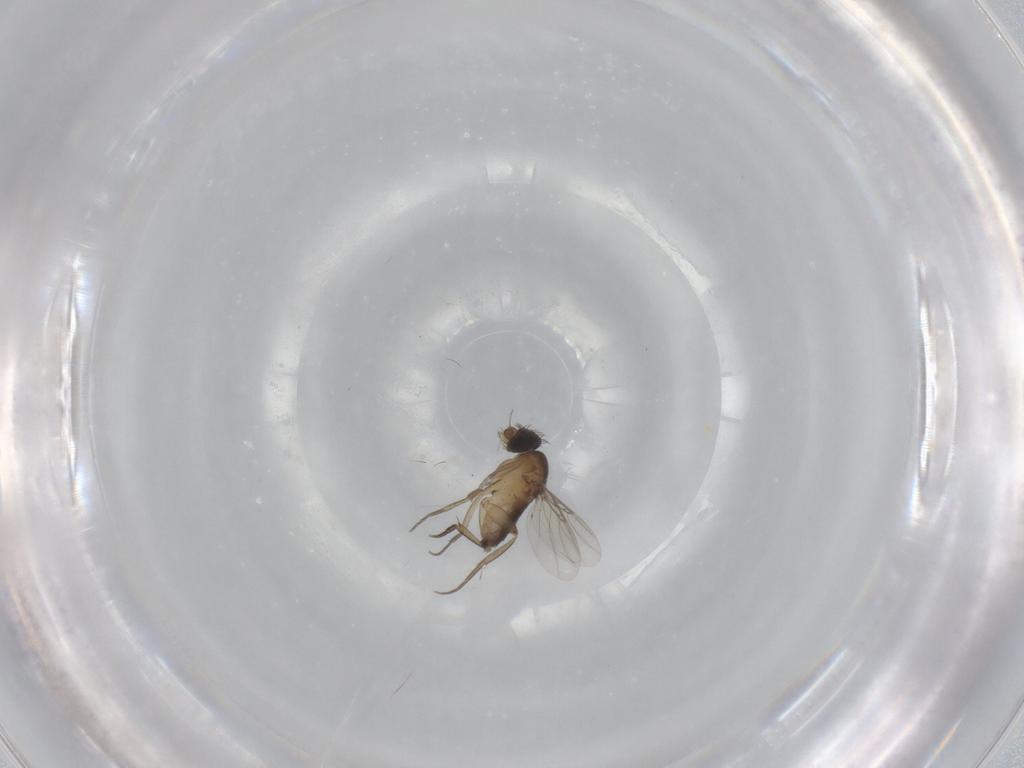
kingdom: Animalia
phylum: Arthropoda
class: Insecta
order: Diptera
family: Phoridae
